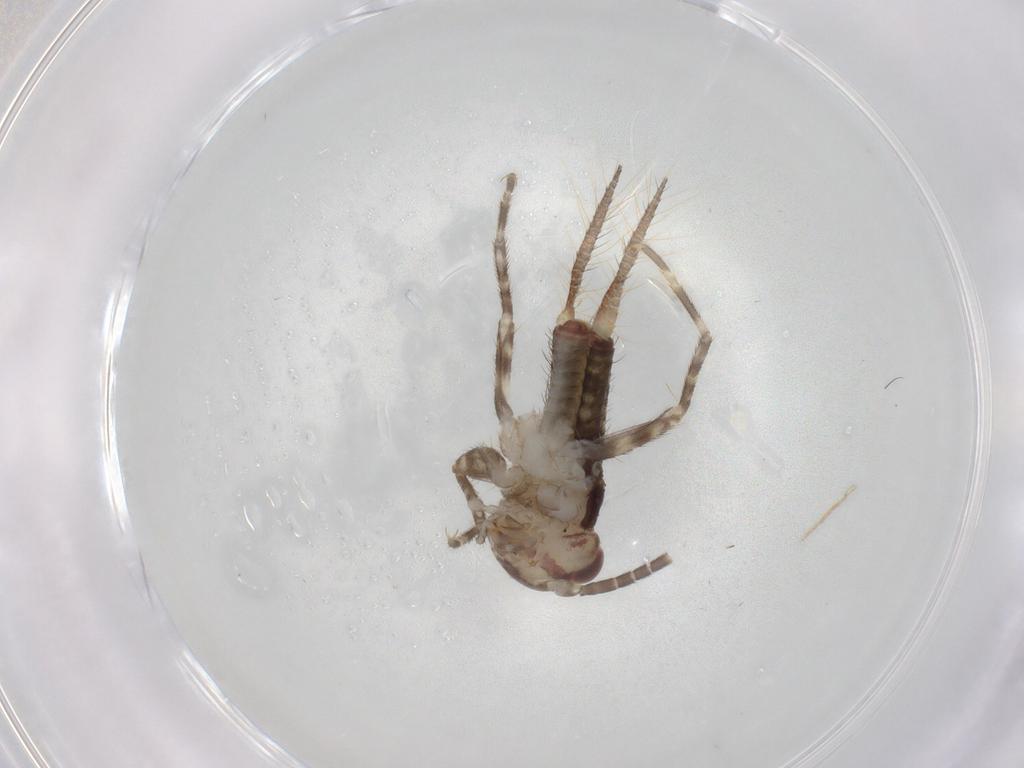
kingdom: Animalia
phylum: Arthropoda
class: Insecta
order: Orthoptera
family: Gryllidae
